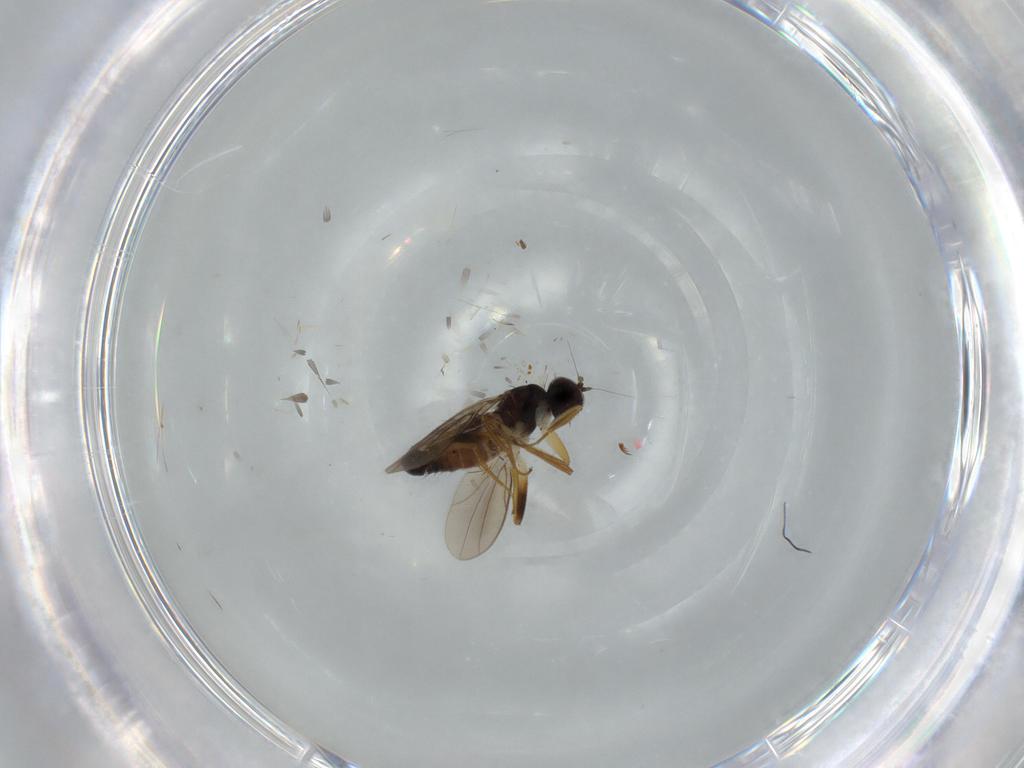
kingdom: Animalia
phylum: Arthropoda
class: Insecta
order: Diptera
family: Hybotidae
